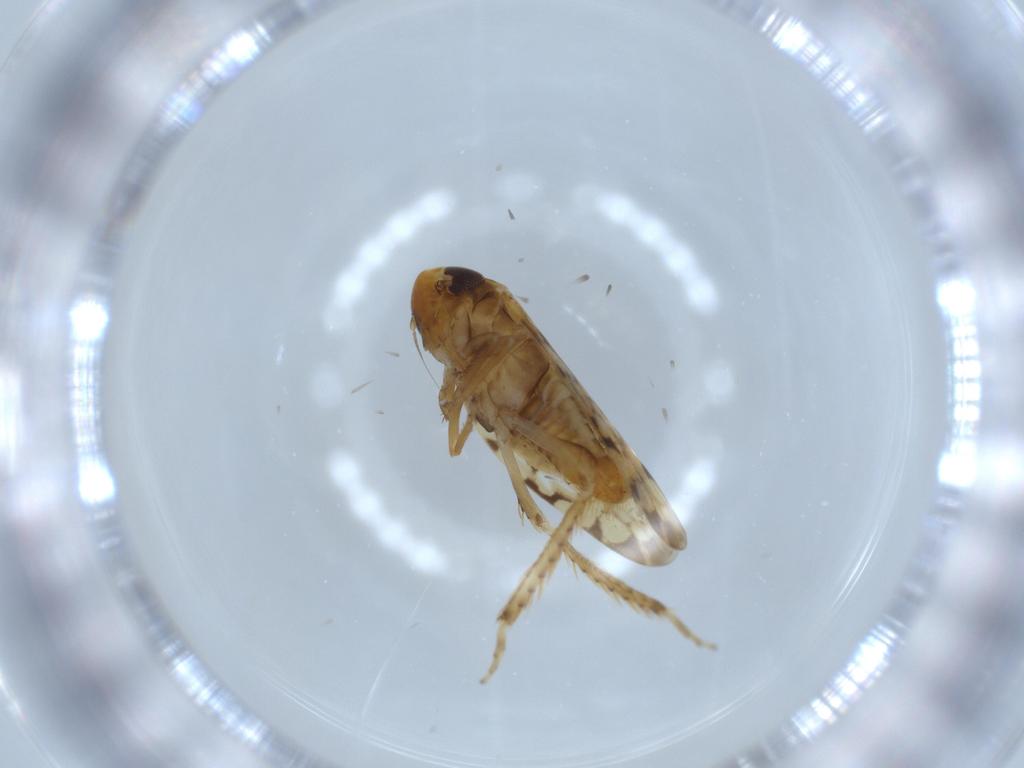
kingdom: Animalia
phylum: Arthropoda
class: Insecta
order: Hemiptera
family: Cicadellidae
